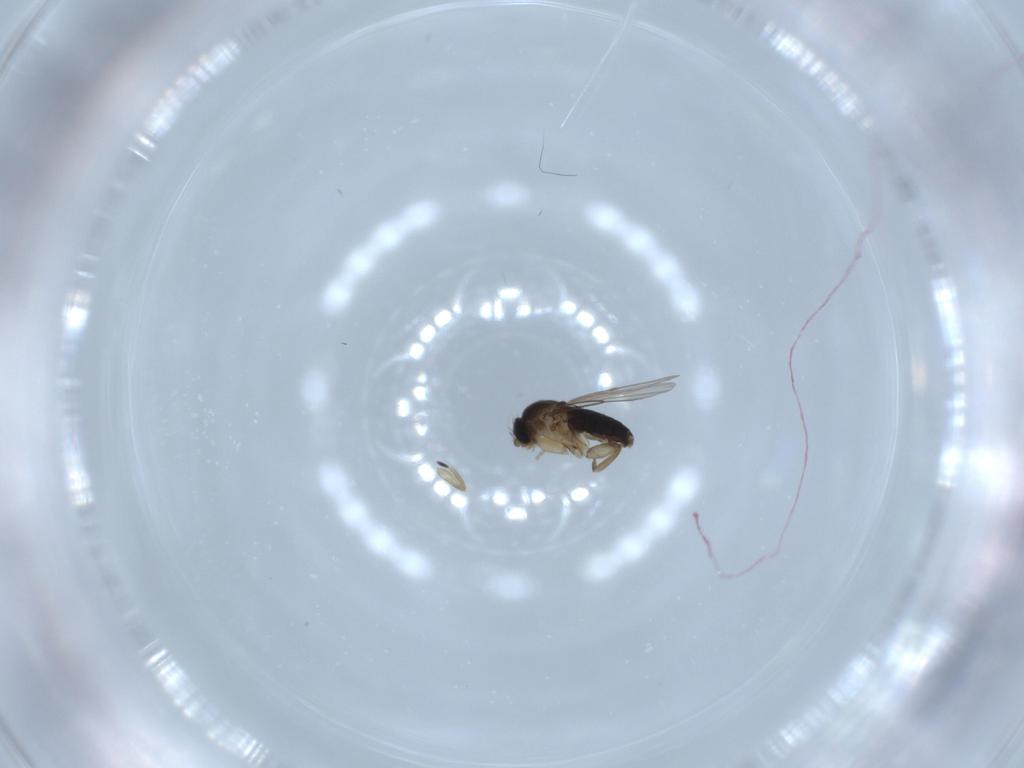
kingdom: Animalia
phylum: Arthropoda
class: Insecta
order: Diptera
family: Phoridae
